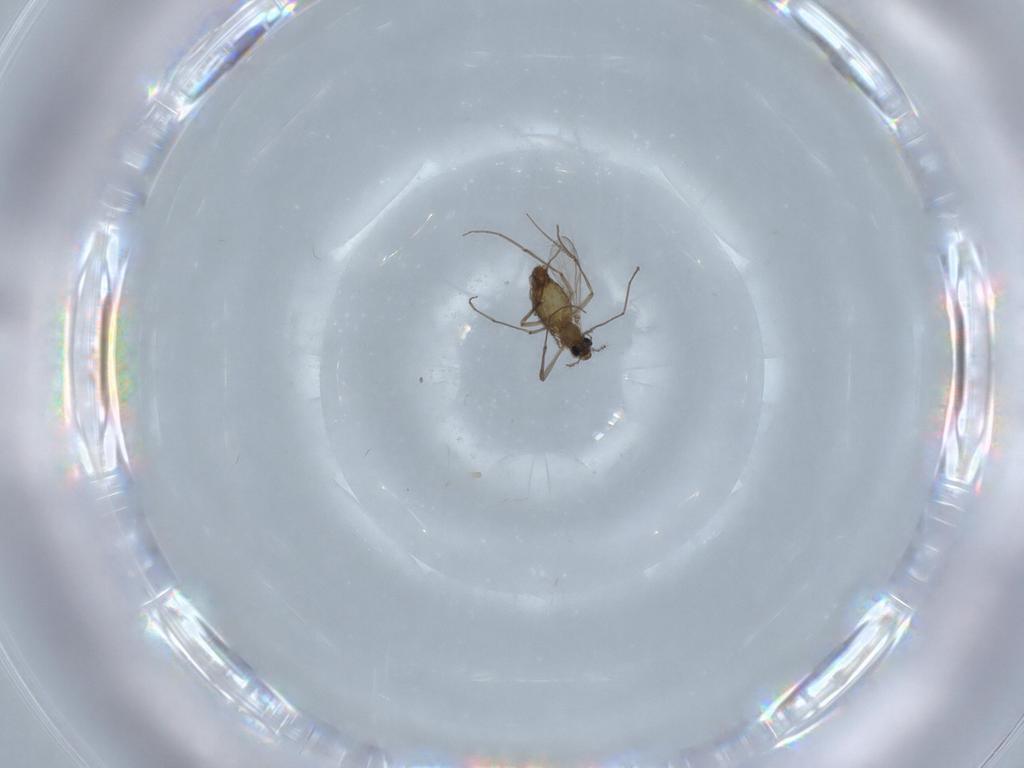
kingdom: Animalia
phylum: Arthropoda
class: Insecta
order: Diptera
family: Chironomidae
